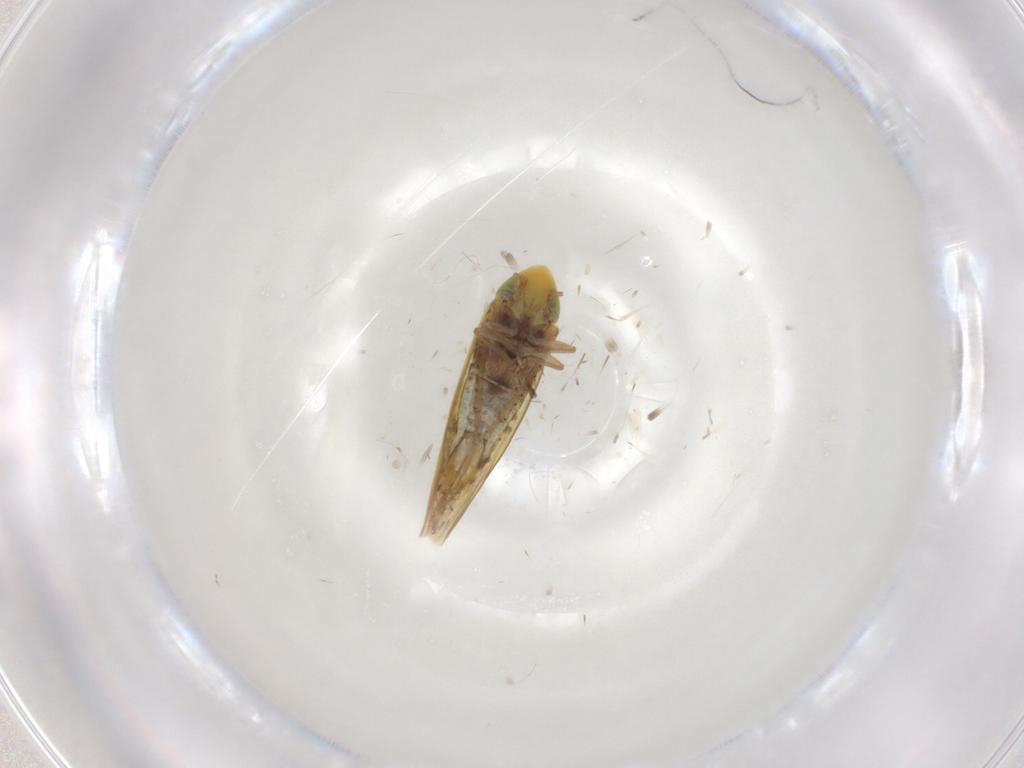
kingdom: Animalia
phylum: Arthropoda
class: Insecta
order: Hemiptera
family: Aleyrodidae
